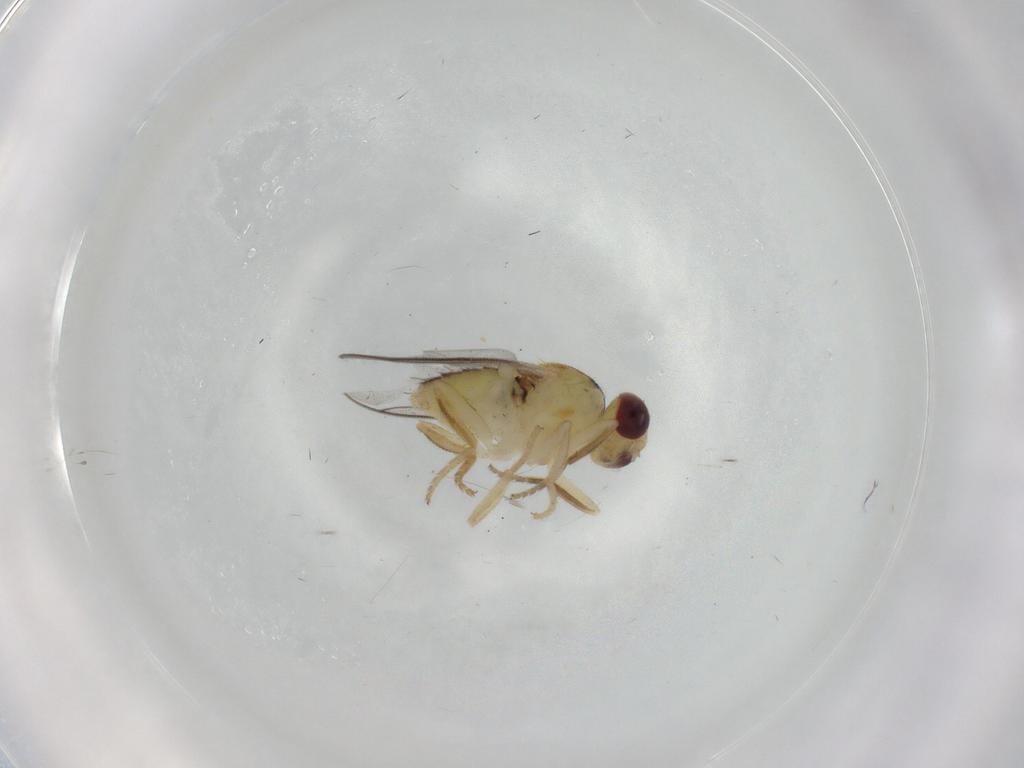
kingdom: Animalia
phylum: Arthropoda
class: Insecta
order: Diptera
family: Chloropidae
